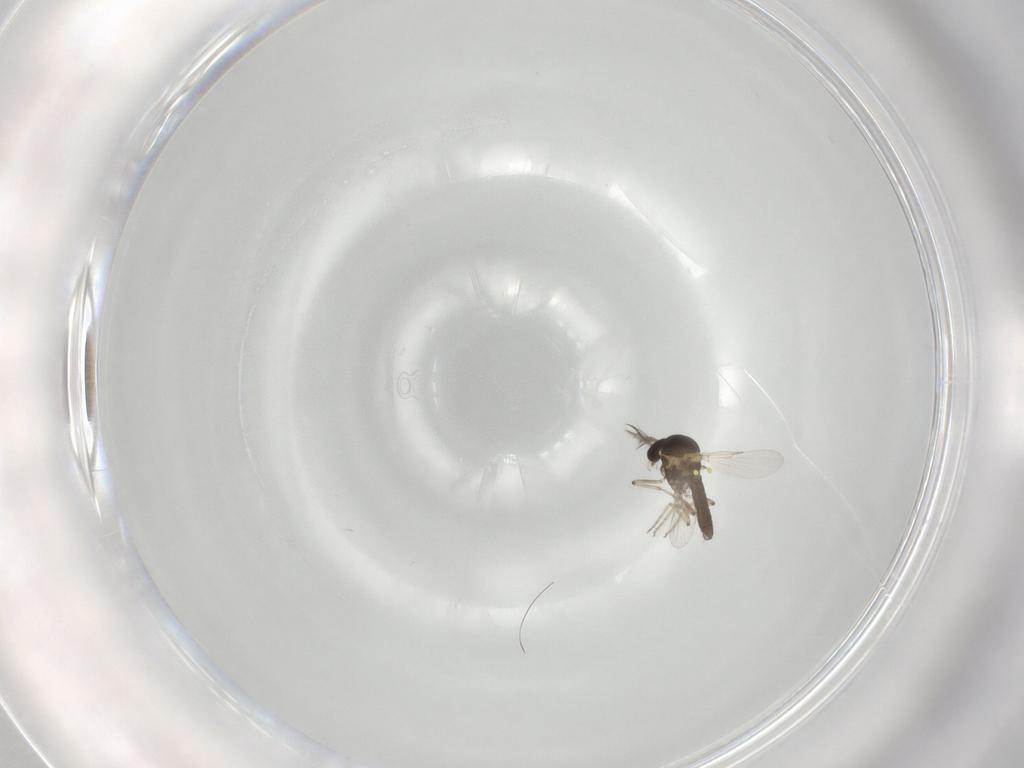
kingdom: Animalia
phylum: Arthropoda
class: Insecta
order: Diptera
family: Ceratopogonidae
